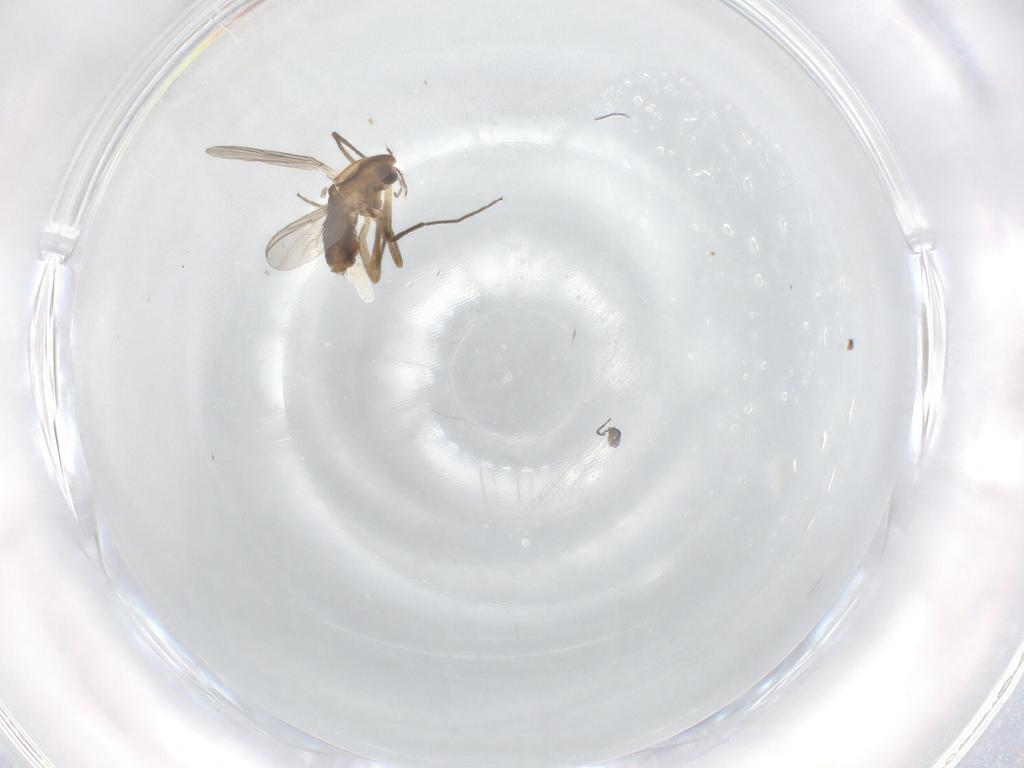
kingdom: Animalia
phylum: Arthropoda
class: Insecta
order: Diptera
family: Chironomidae
